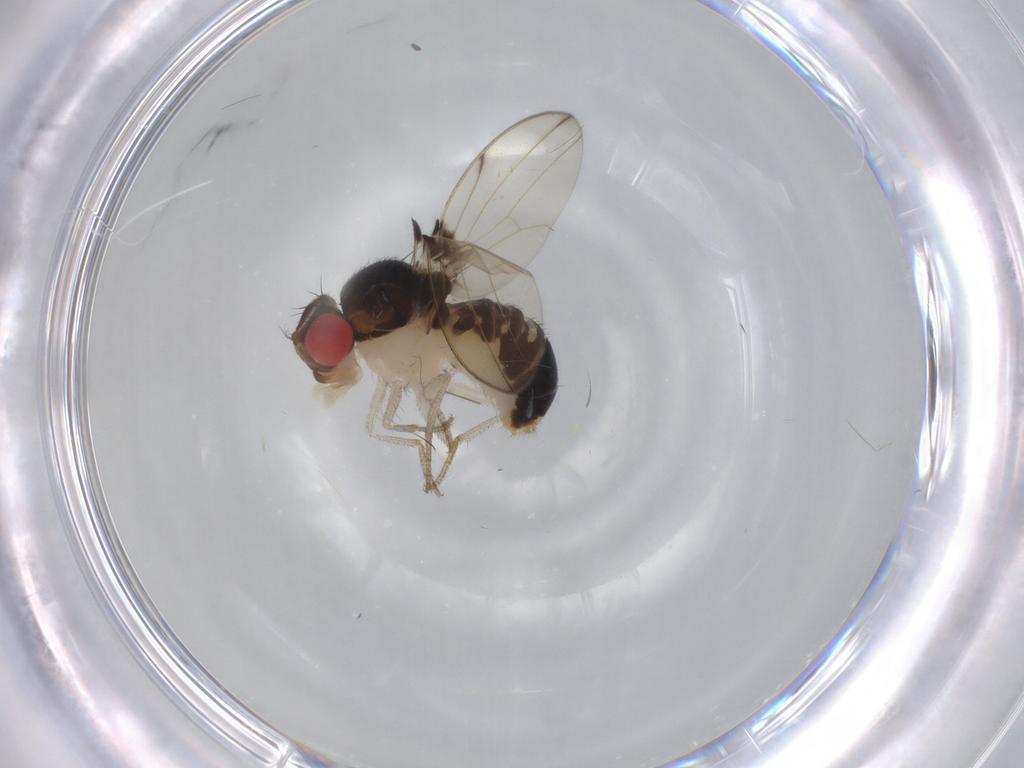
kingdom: Animalia
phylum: Arthropoda
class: Insecta
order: Diptera
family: Drosophilidae
